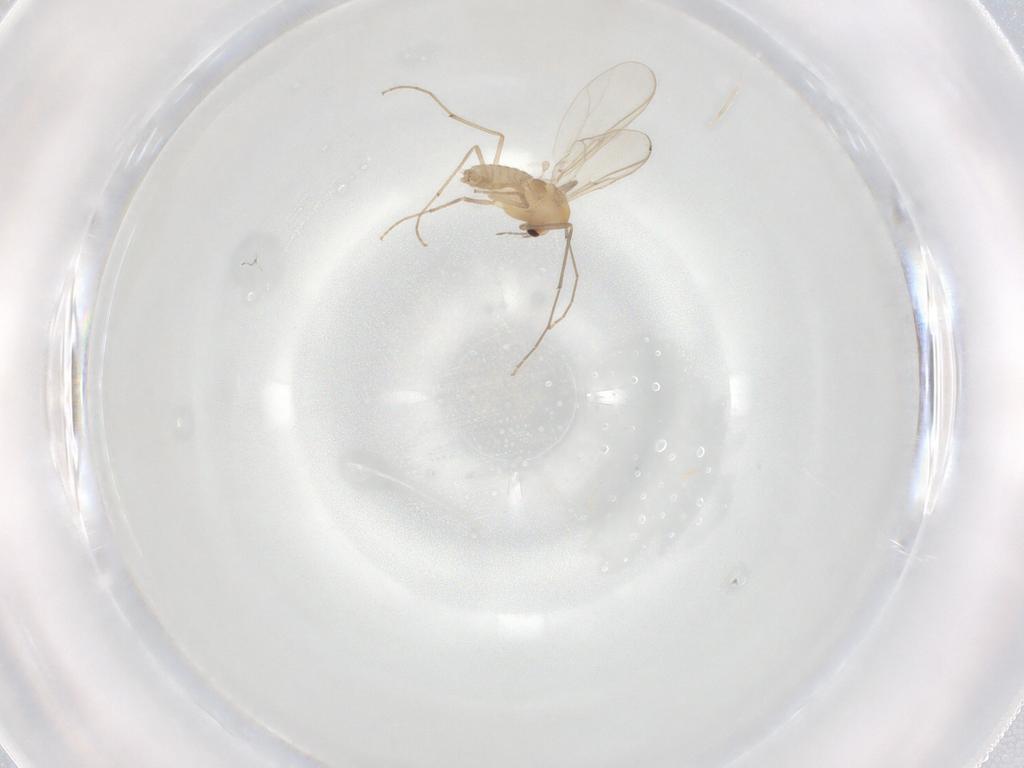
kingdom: Animalia
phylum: Arthropoda
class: Insecta
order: Diptera
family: Chironomidae
